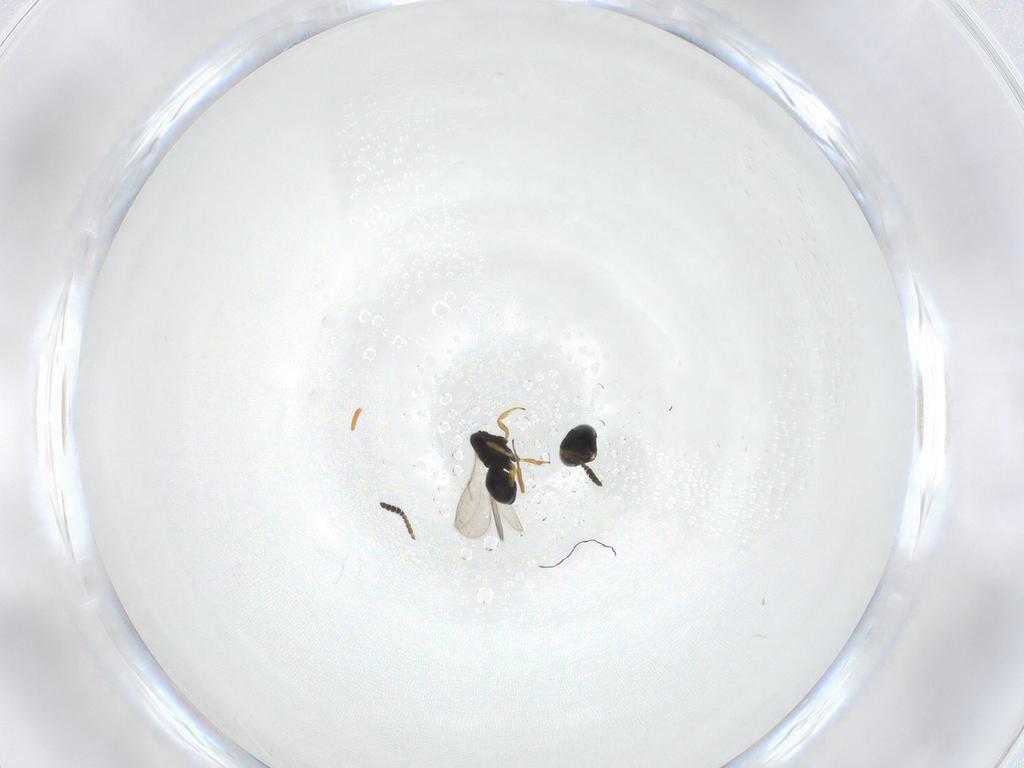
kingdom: Animalia
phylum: Arthropoda
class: Insecta
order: Hymenoptera
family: Scelionidae
